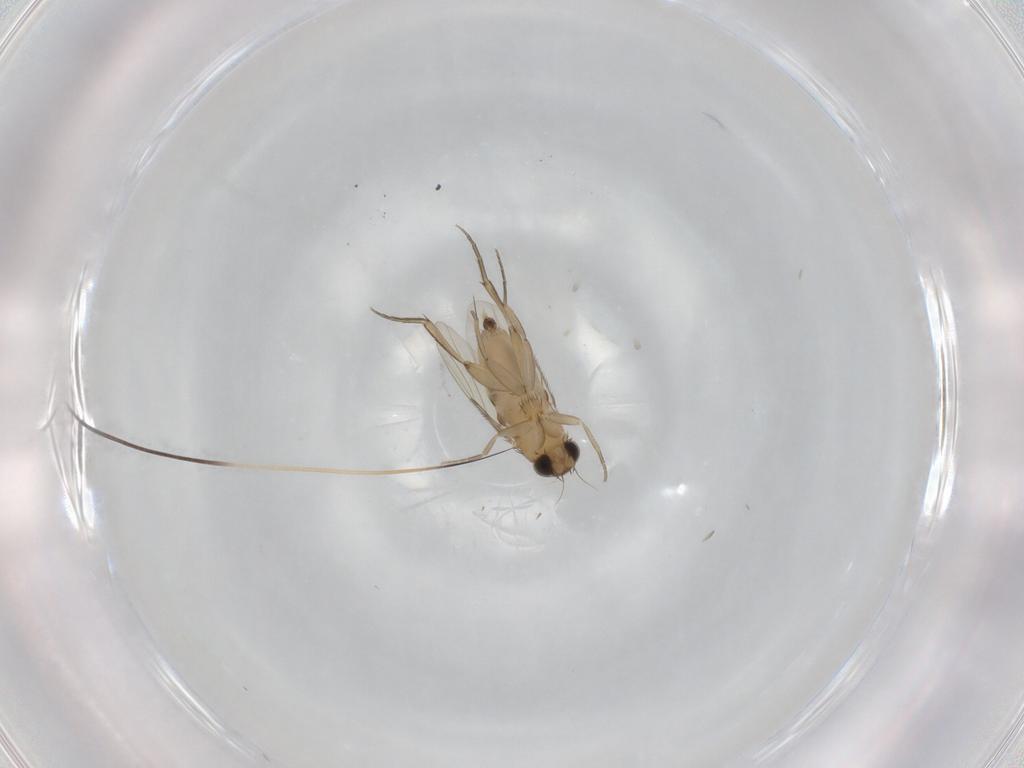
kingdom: Animalia
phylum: Arthropoda
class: Insecta
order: Diptera
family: Phoridae
